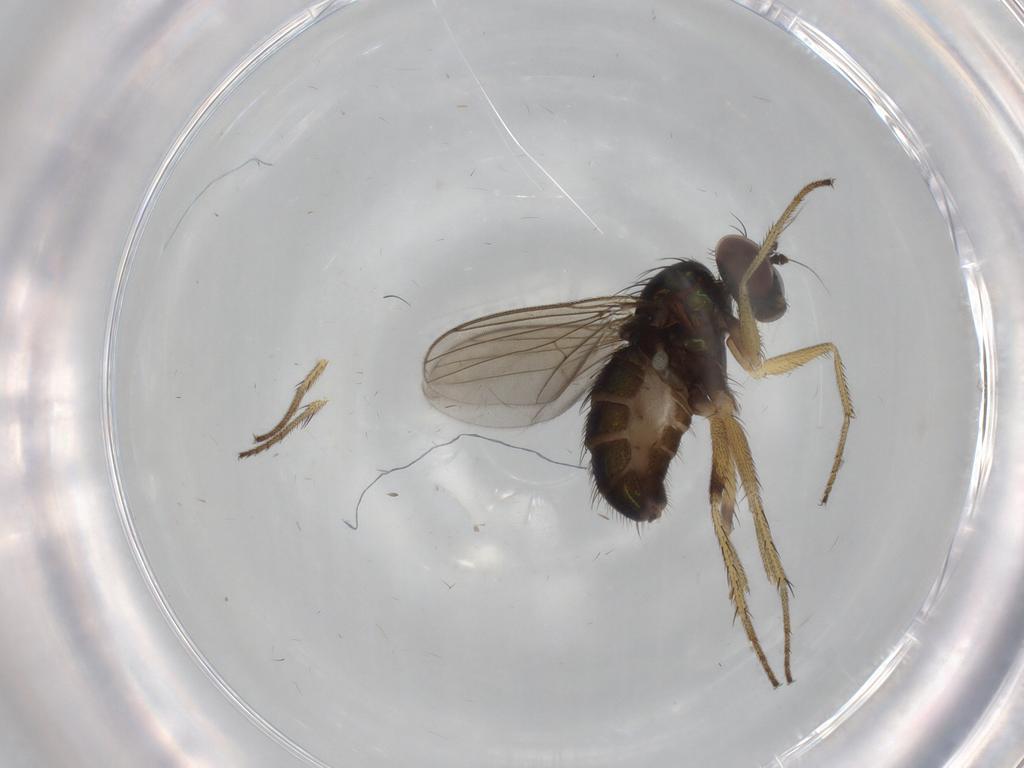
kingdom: Animalia
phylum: Arthropoda
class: Insecta
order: Diptera
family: Dolichopodidae
